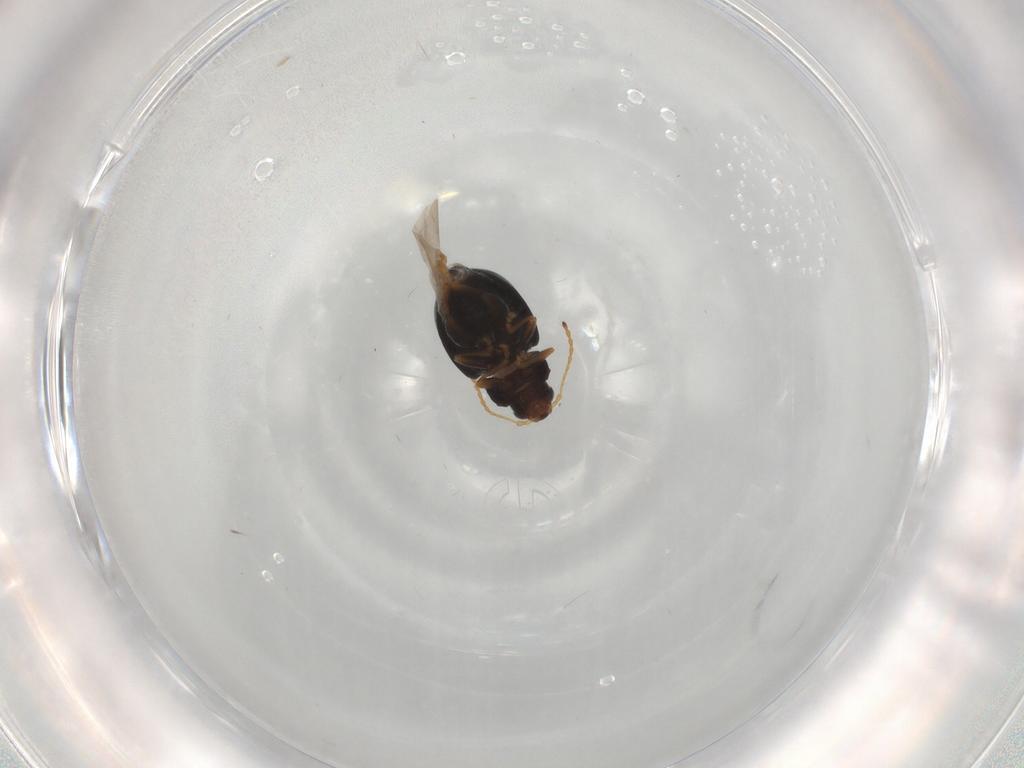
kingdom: Animalia
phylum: Arthropoda
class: Insecta
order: Coleoptera
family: Chrysomelidae
